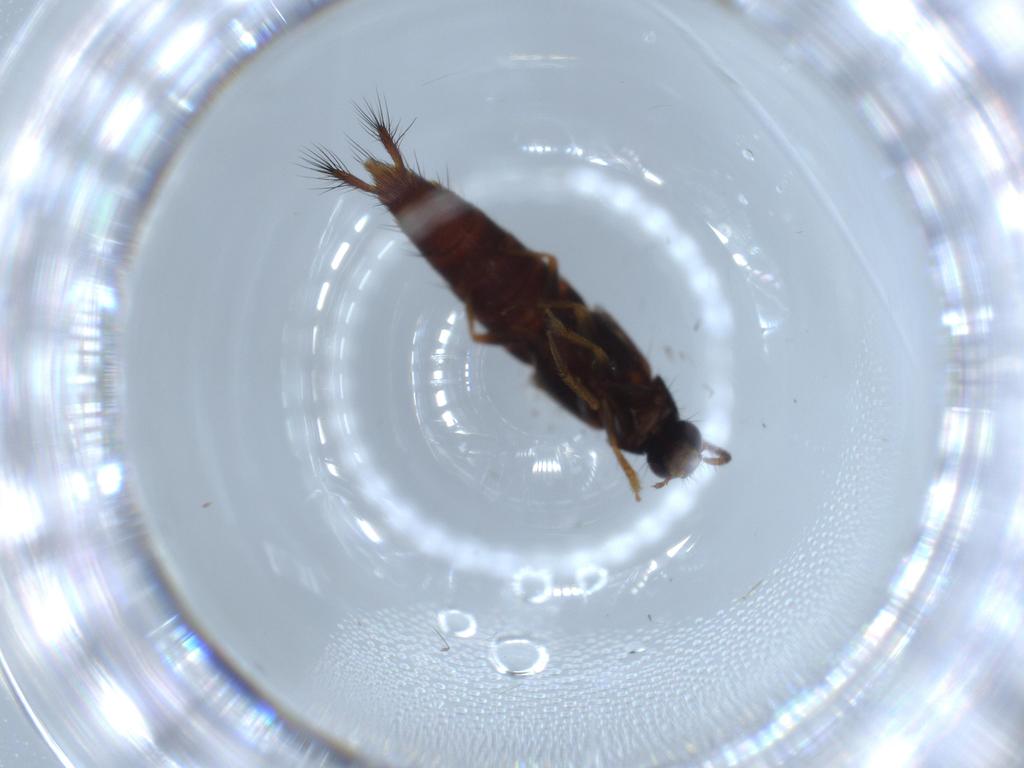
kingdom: Animalia
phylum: Arthropoda
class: Insecta
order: Coleoptera
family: Staphylinidae
